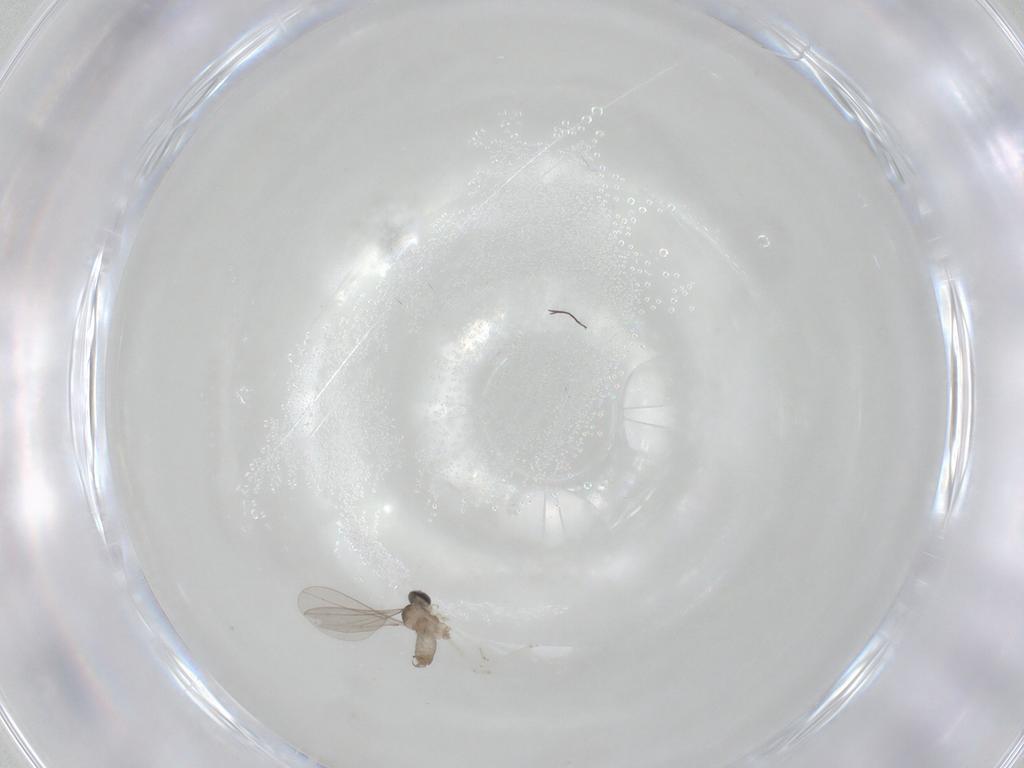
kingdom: Animalia
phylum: Arthropoda
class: Insecta
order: Diptera
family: Cecidomyiidae
